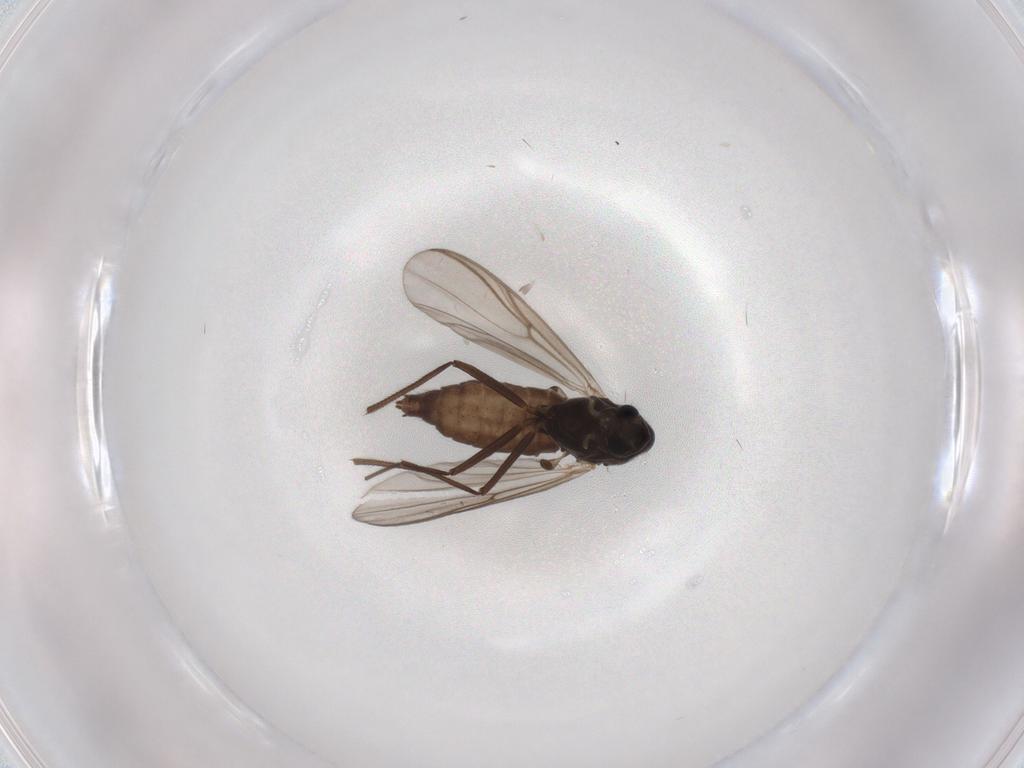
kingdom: Animalia
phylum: Arthropoda
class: Insecta
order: Diptera
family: Chironomidae
